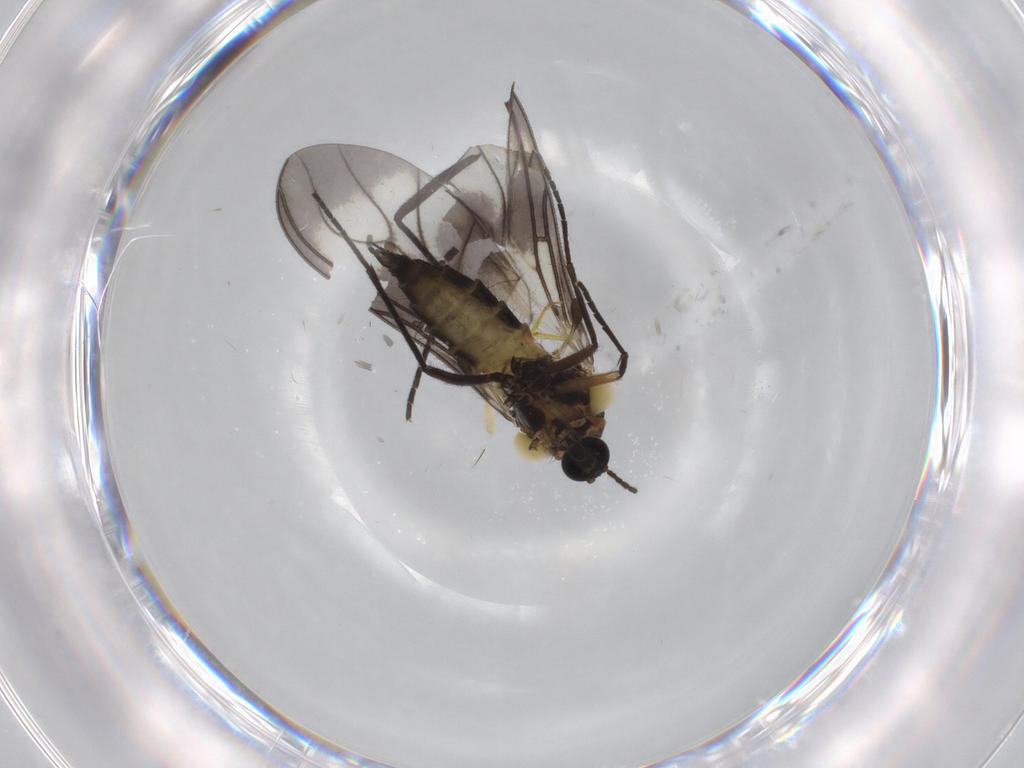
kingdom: Animalia
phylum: Arthropoda
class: Insecta
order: Diptera
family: Sciaridae
